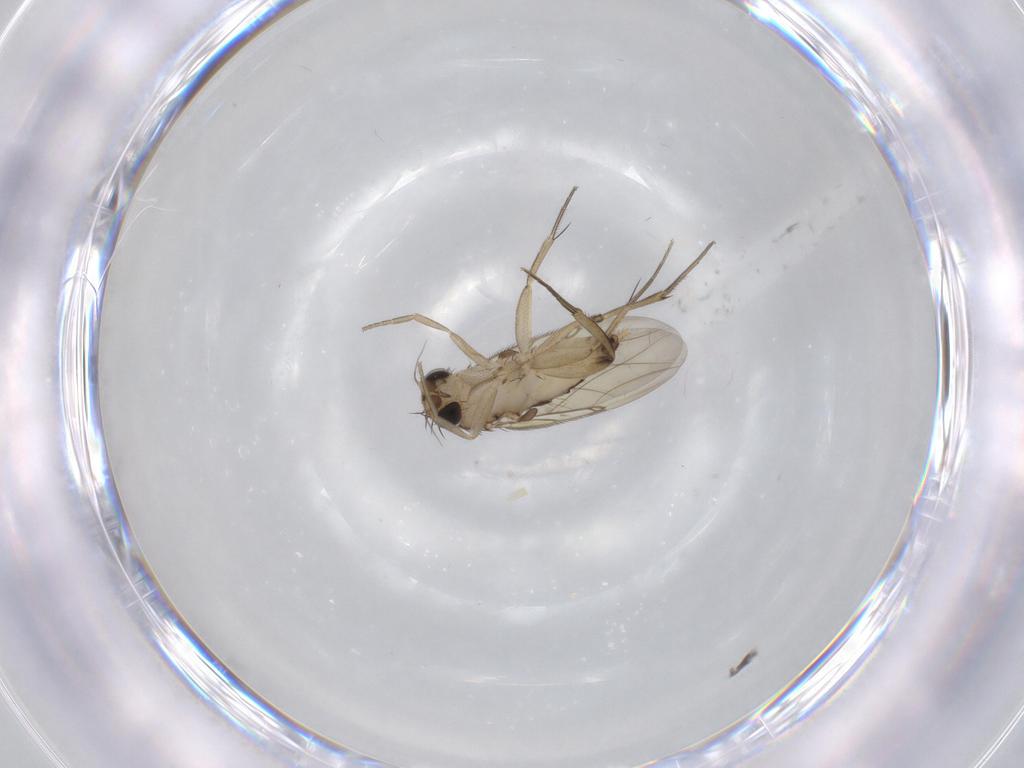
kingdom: Animalia
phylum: Arthropoda
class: Insecta
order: Diptera
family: Phoridae
